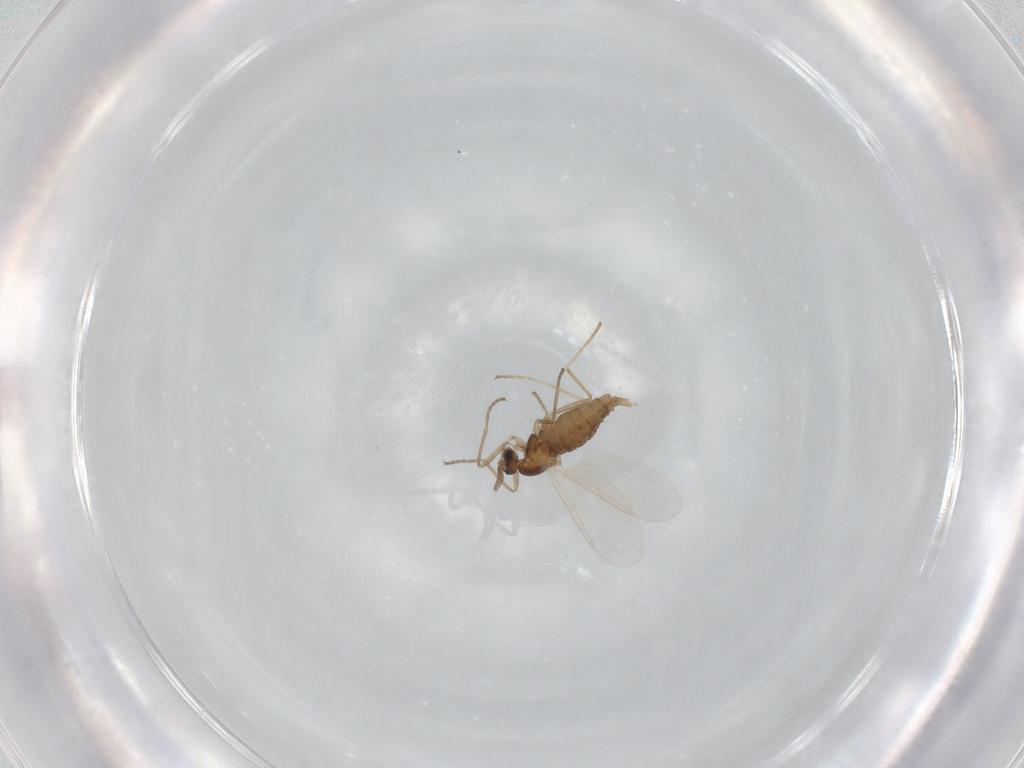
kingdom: Animalia
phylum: Arthropoda
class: Insecta
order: Diptera
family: Cecidomyiidae
